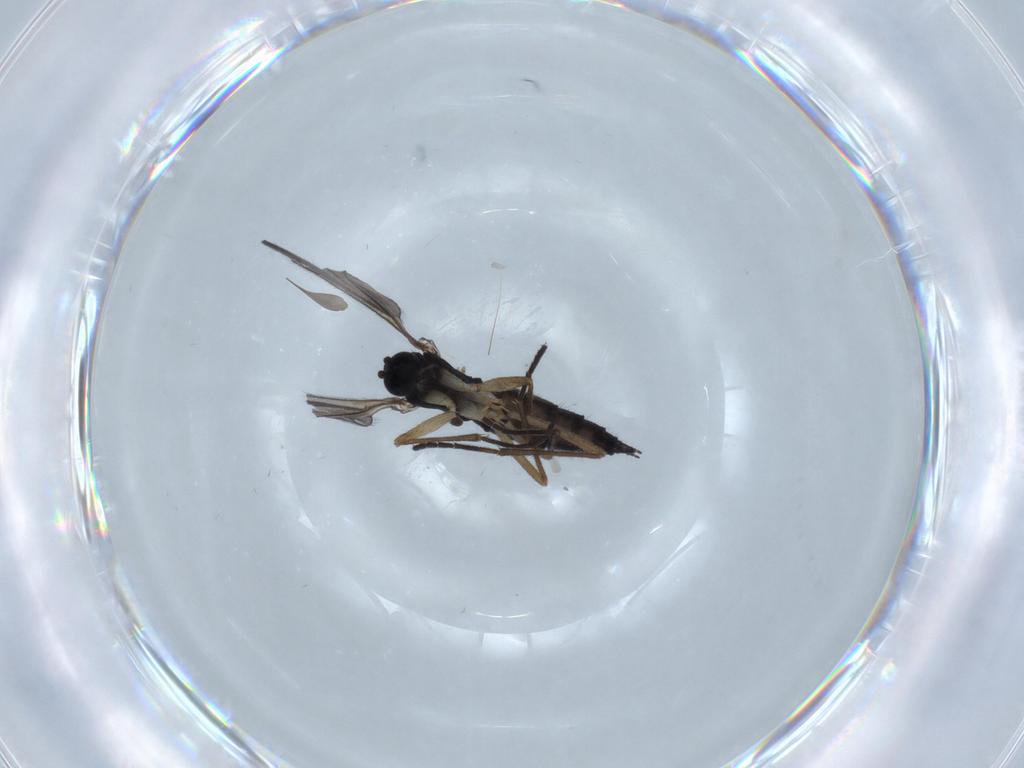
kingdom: Animalia
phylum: Arthropoda
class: Insecta
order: Diptera
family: Sciaridae
